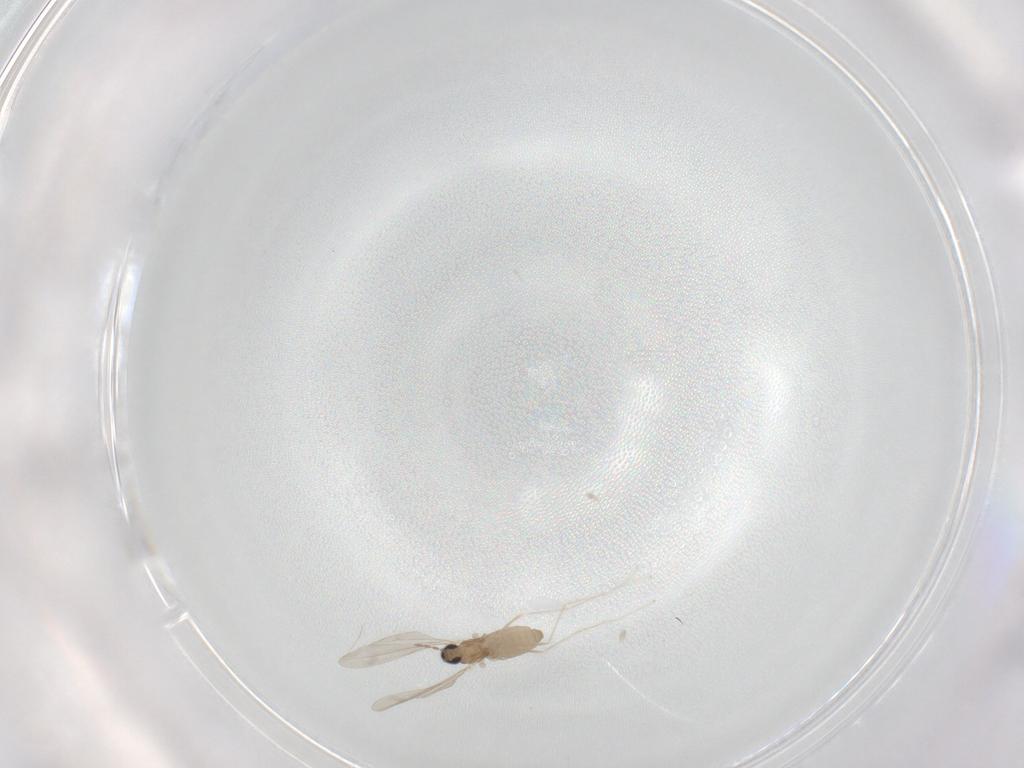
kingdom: Animalia
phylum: Arthropoda
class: Insecta
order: Diptera
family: Cecidomyiidae
